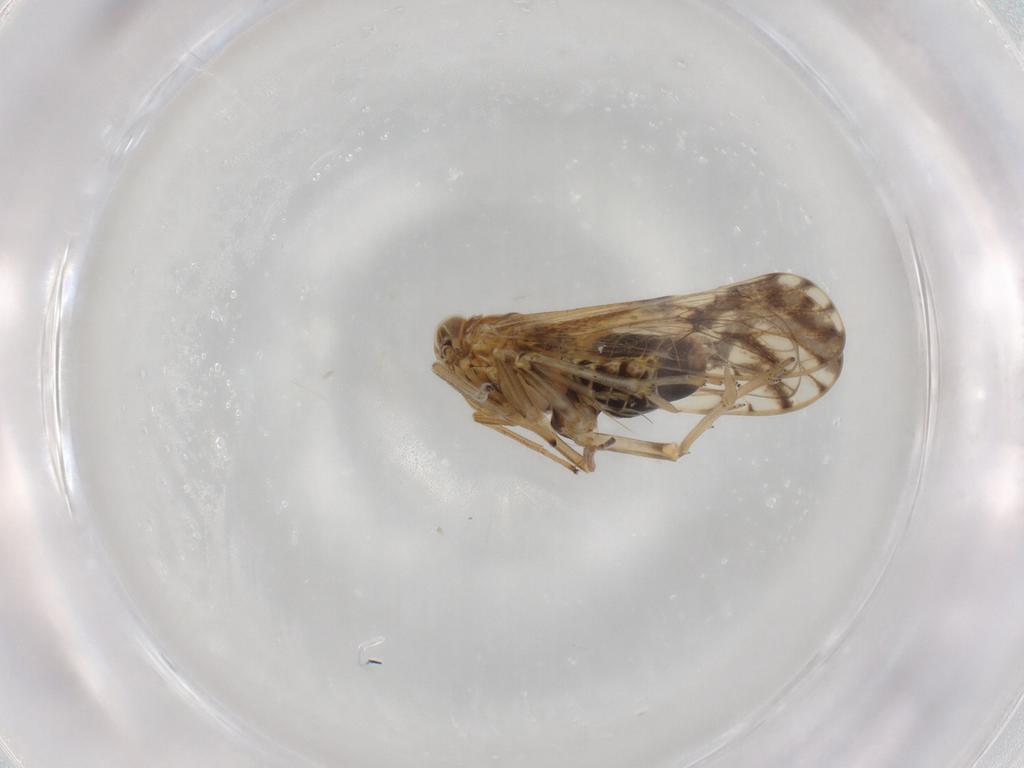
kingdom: Animalia
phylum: Arthropoda
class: Insecta
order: Hemiptera
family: Delphacidae
